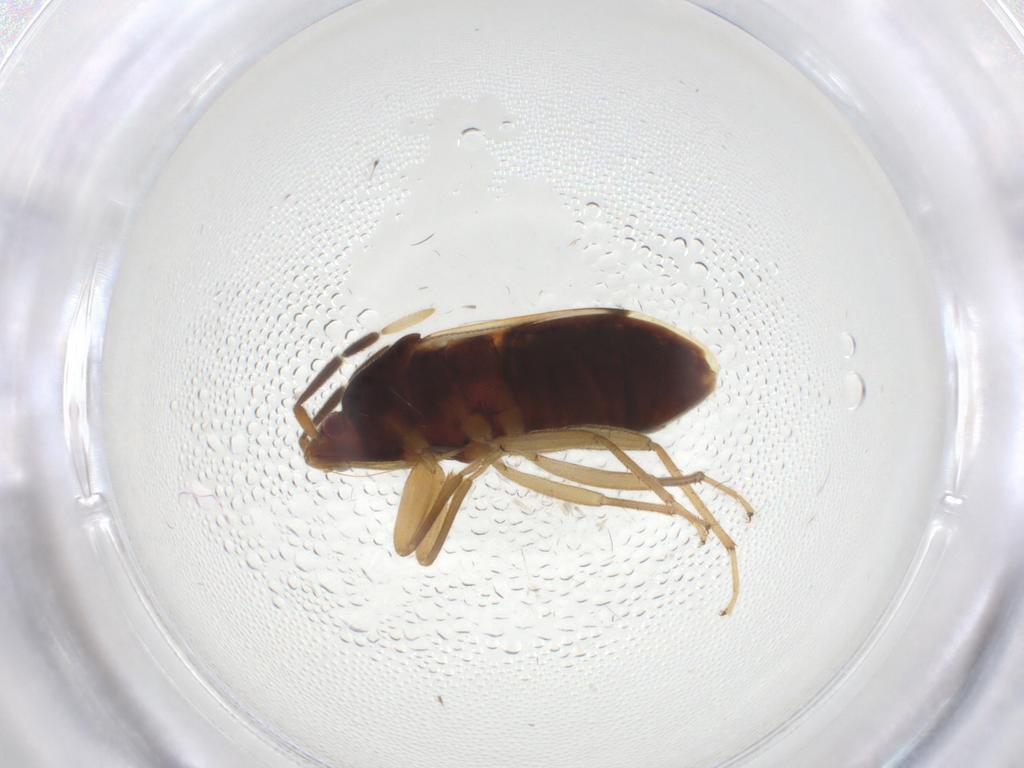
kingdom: Animalia
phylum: Arthropoda
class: Insecta
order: Hemiptera
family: Rhyparochromidae
